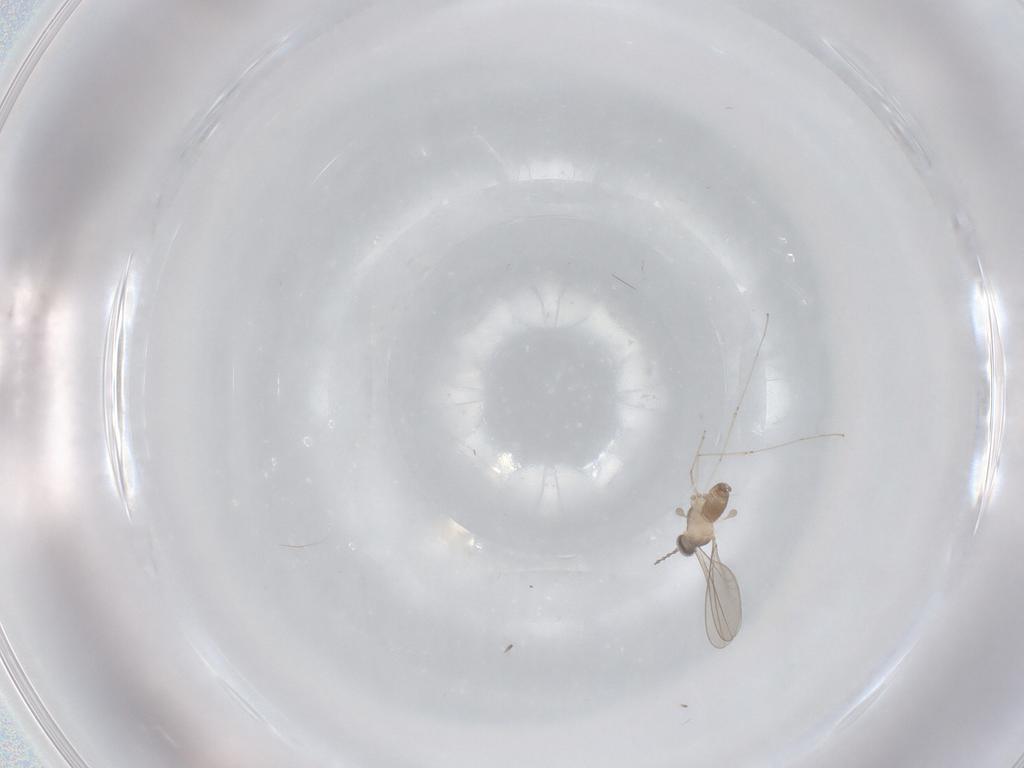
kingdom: Animalia
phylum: Arthropoda
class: Insecta
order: Diptera
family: Cecidomyiidae
